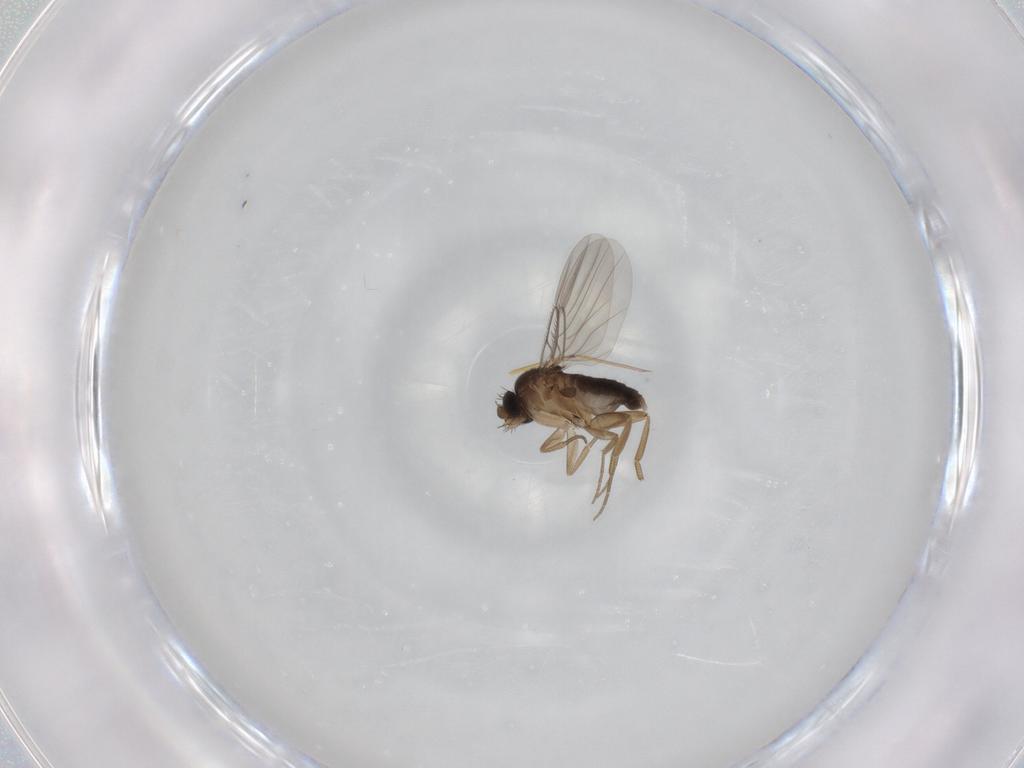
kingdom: Animalia
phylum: Arthropoda
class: Insecta
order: Diptera
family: Phoridae
